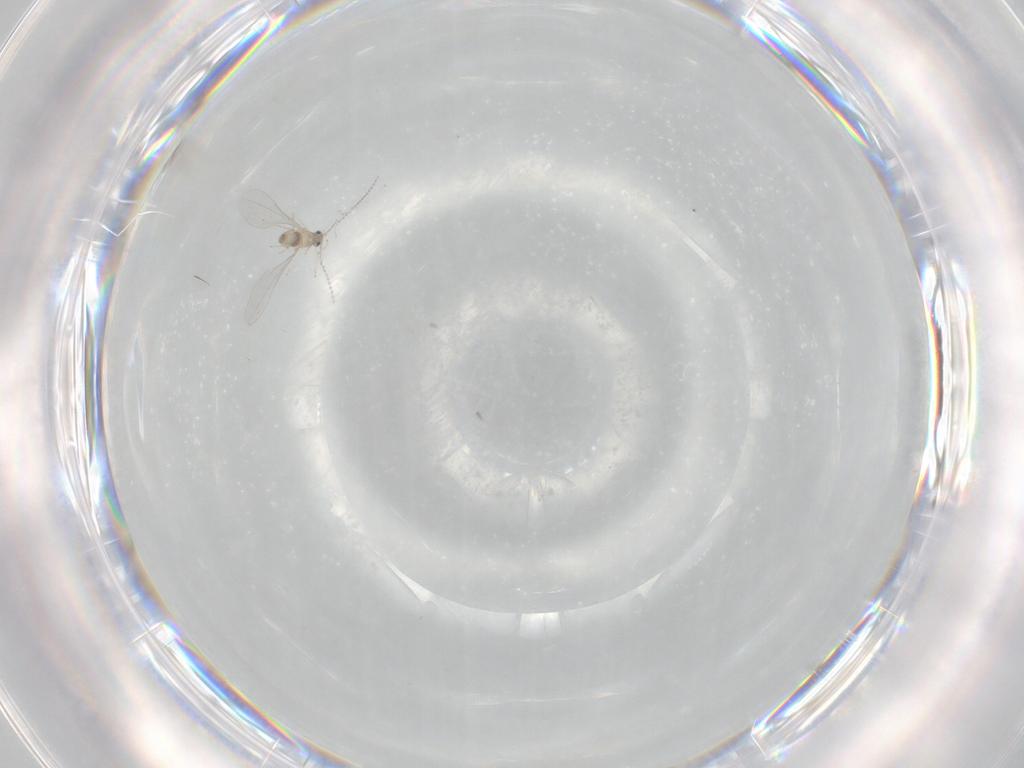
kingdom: Animalia
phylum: Arthropoda
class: Insecta
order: Diptera
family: Cecidomyiidae
